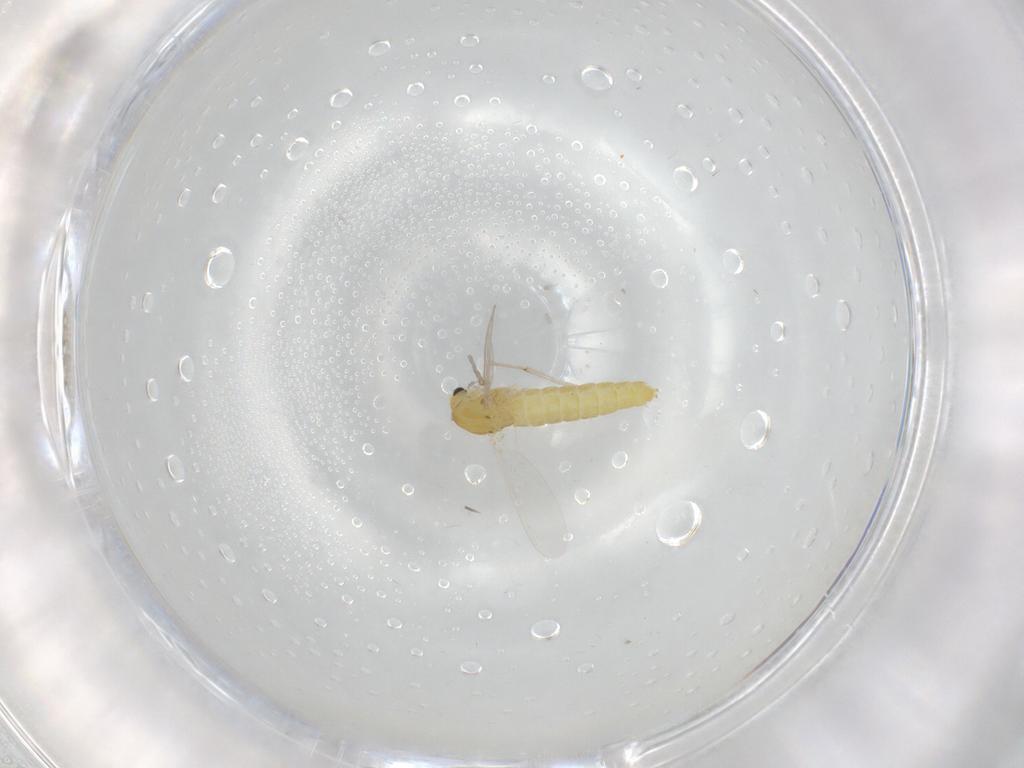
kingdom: Animalia
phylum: Arthropoda
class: Insecta
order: Diptera
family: Chironomidae
